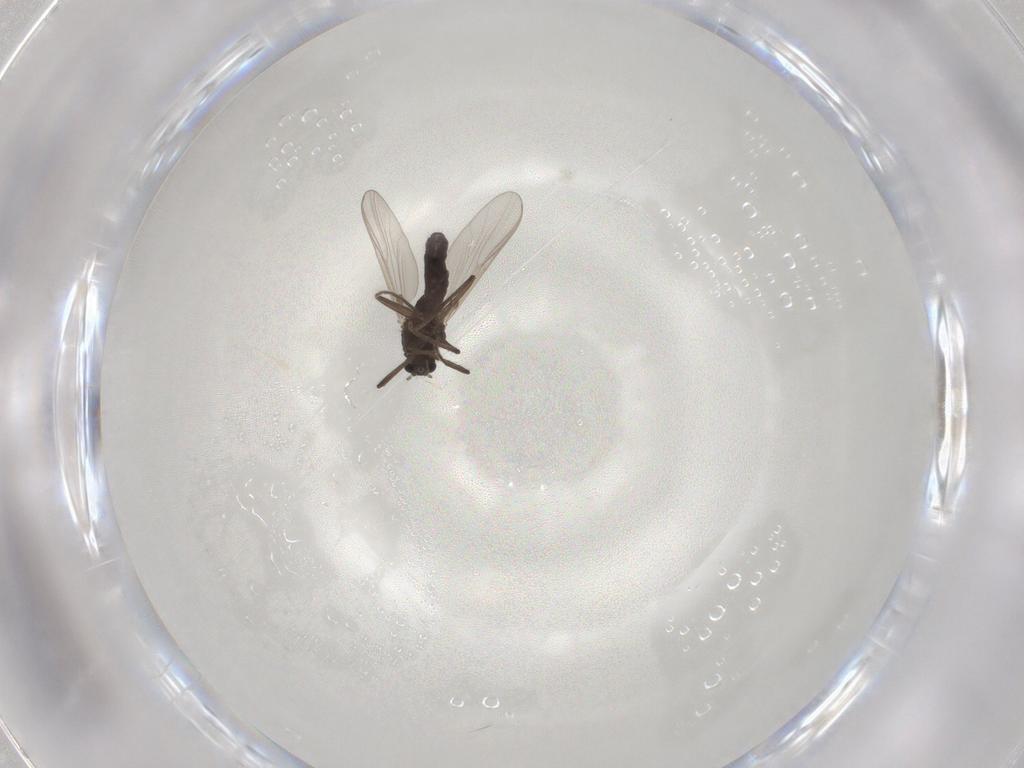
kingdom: Animalia
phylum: Arthropoda
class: Insecta
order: Diptera
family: Chironomidae
